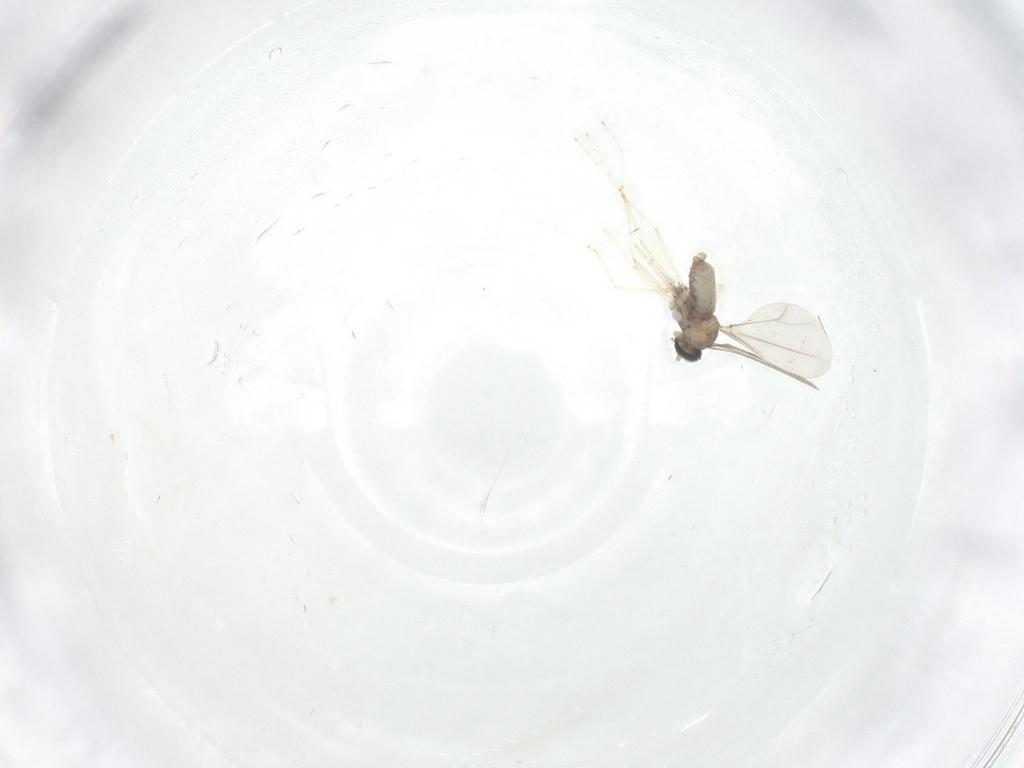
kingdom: Animalia
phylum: Arthropoda
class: Insecta
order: Diptera
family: Cecidomyiidae
